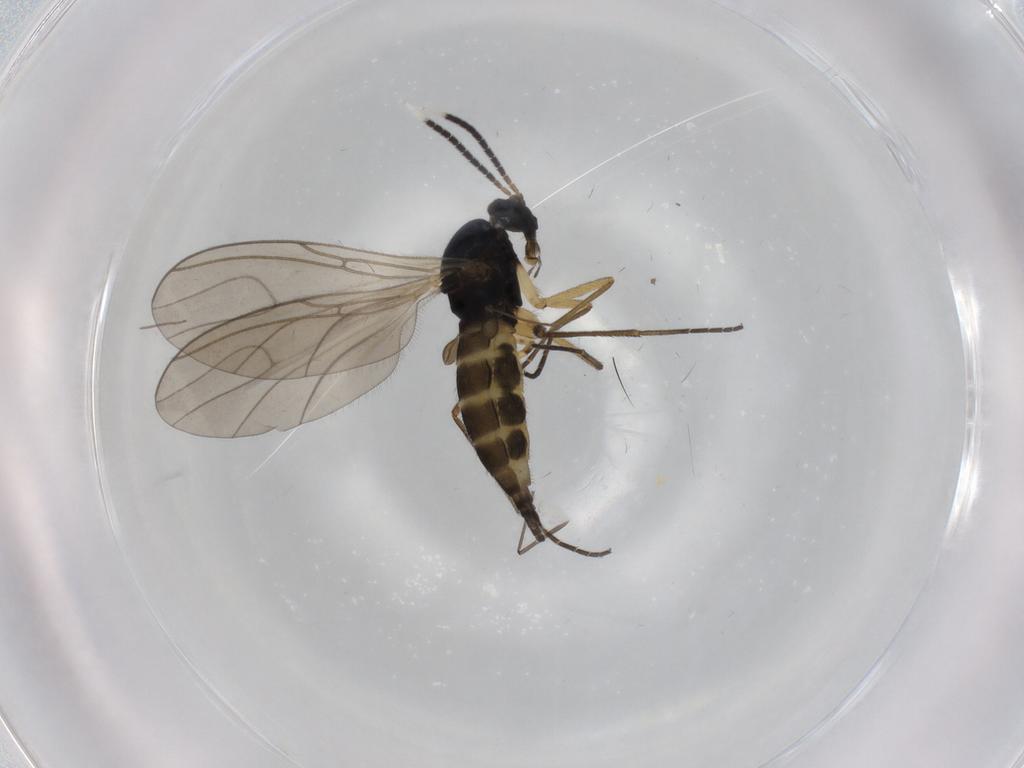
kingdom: Animalia
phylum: Arthropoda
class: Insecta
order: Diptera
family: Sciaridae
